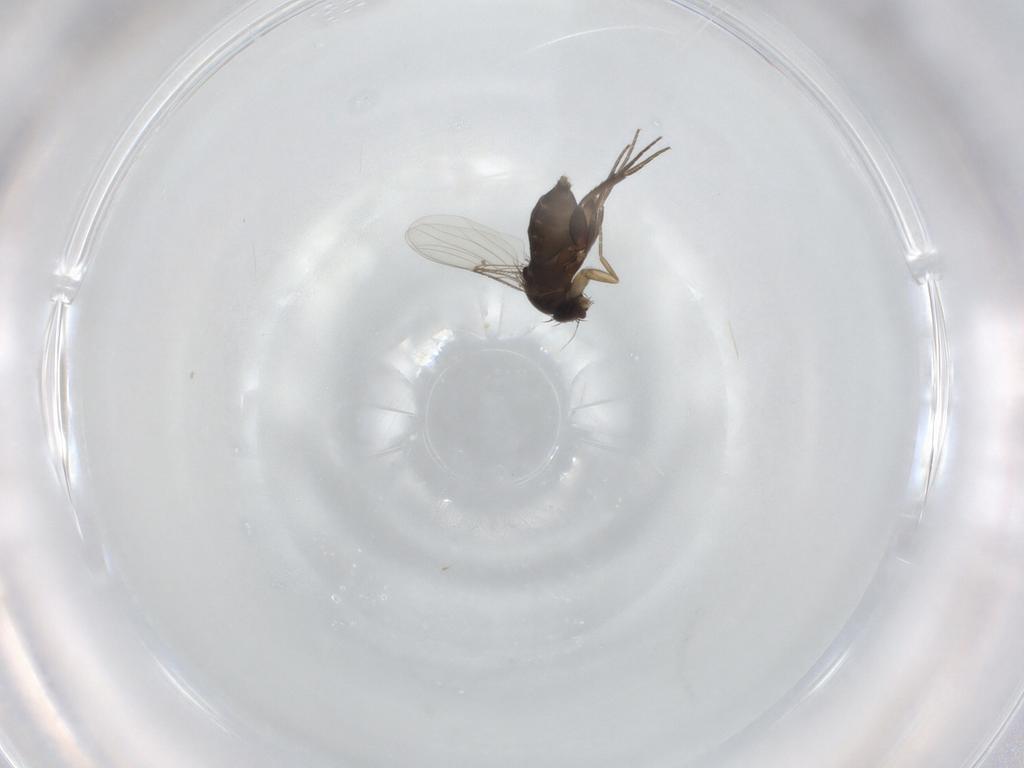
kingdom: Animalia
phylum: Arthropoda
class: Insecta
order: Diptera
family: Phoridae
